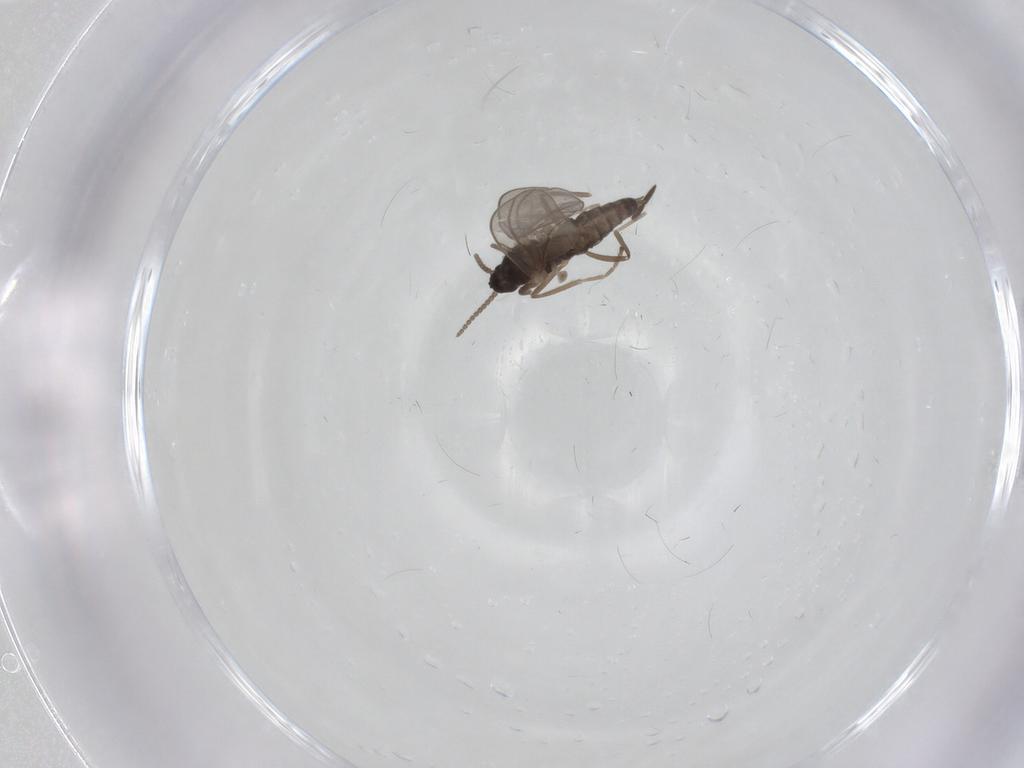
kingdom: Animalia
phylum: Arthropoda
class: Insecta
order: Diptera
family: Cecidomyiidae
